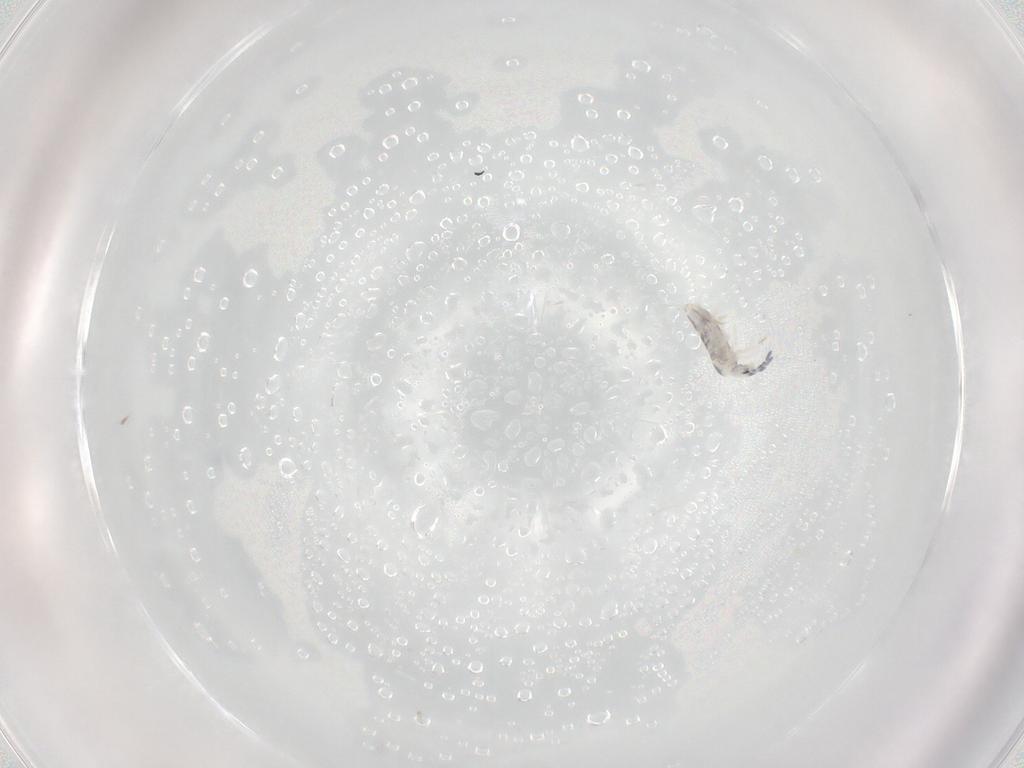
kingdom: Animalia
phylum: Arthropoda
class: Collembola
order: Entomobryomorpha
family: Entomobryidae
